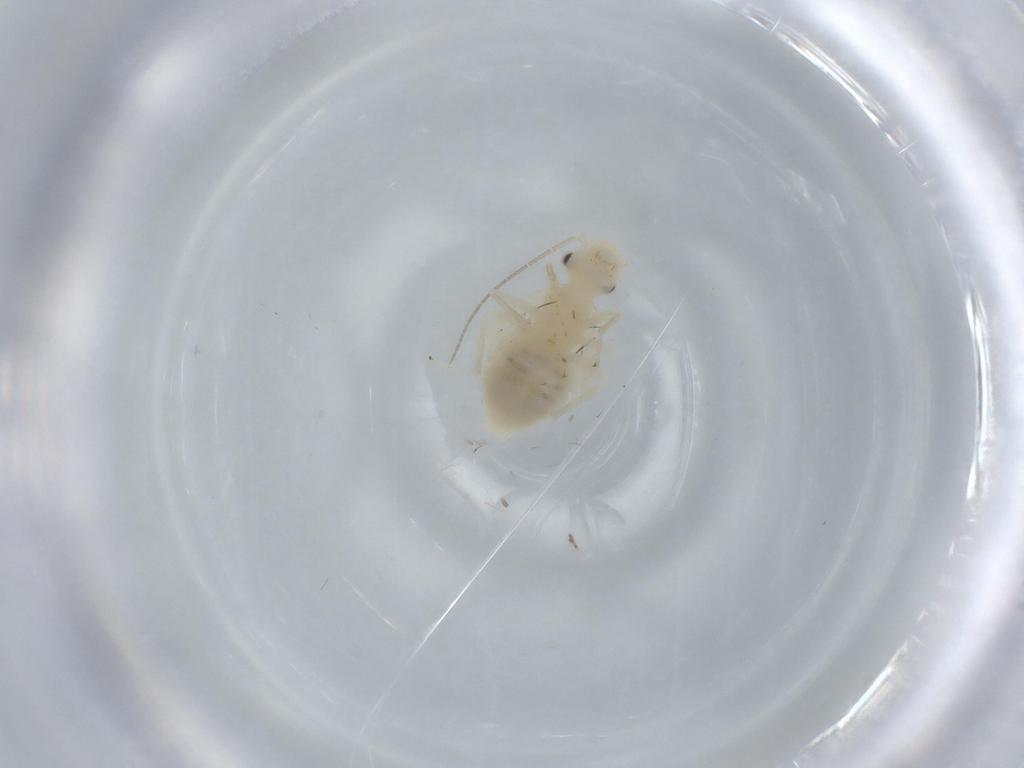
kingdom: Animalia
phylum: Arthropoda
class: Insecta
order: Psocodea
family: Caeciliusidae
